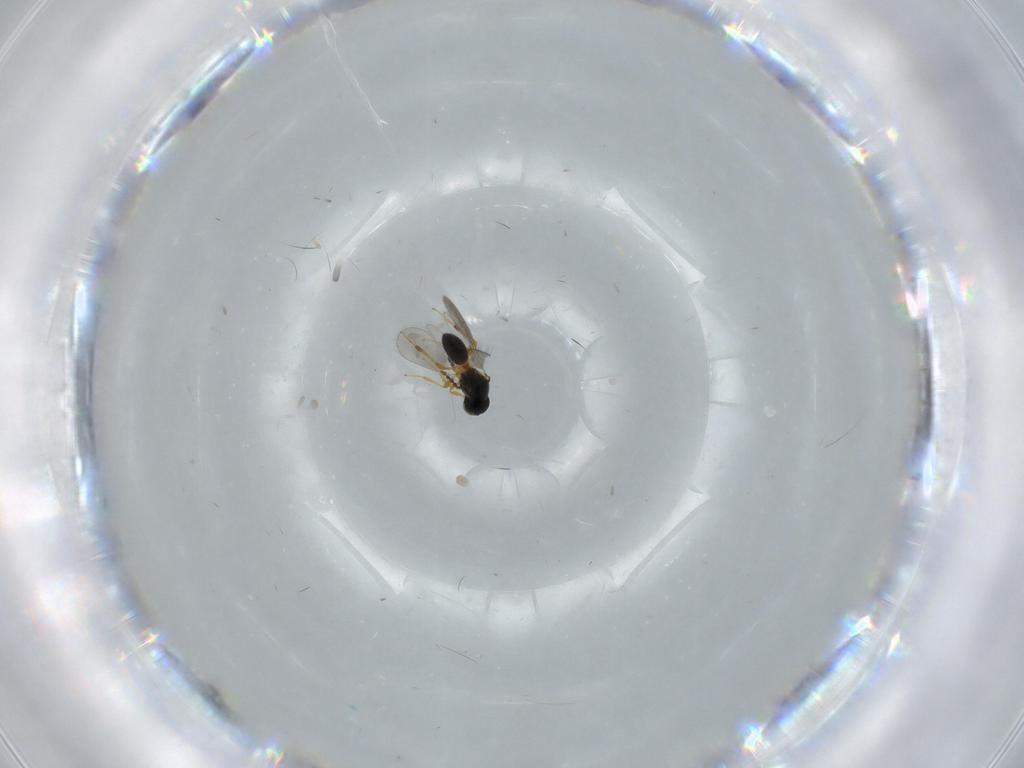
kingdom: Animalia
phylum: Arthropoda
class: Insecta
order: Hymenoptera
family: Platygastridae
